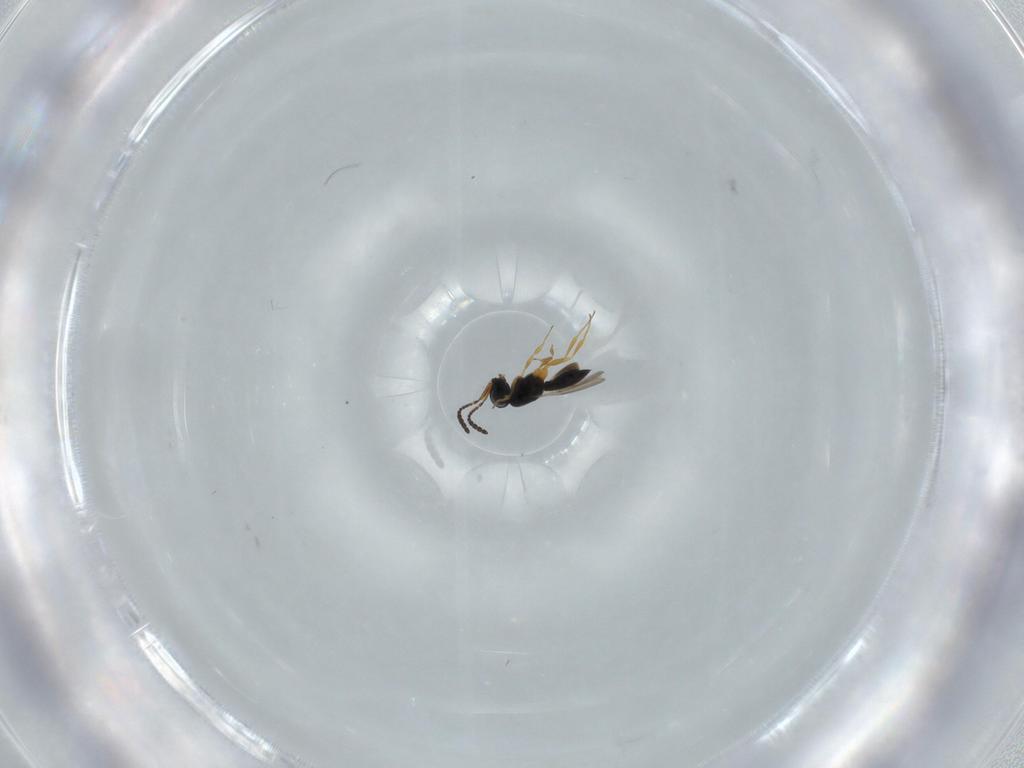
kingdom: Animalia
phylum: Arthropoda
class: Insecta
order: Hymenoptera
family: Scelionidae
